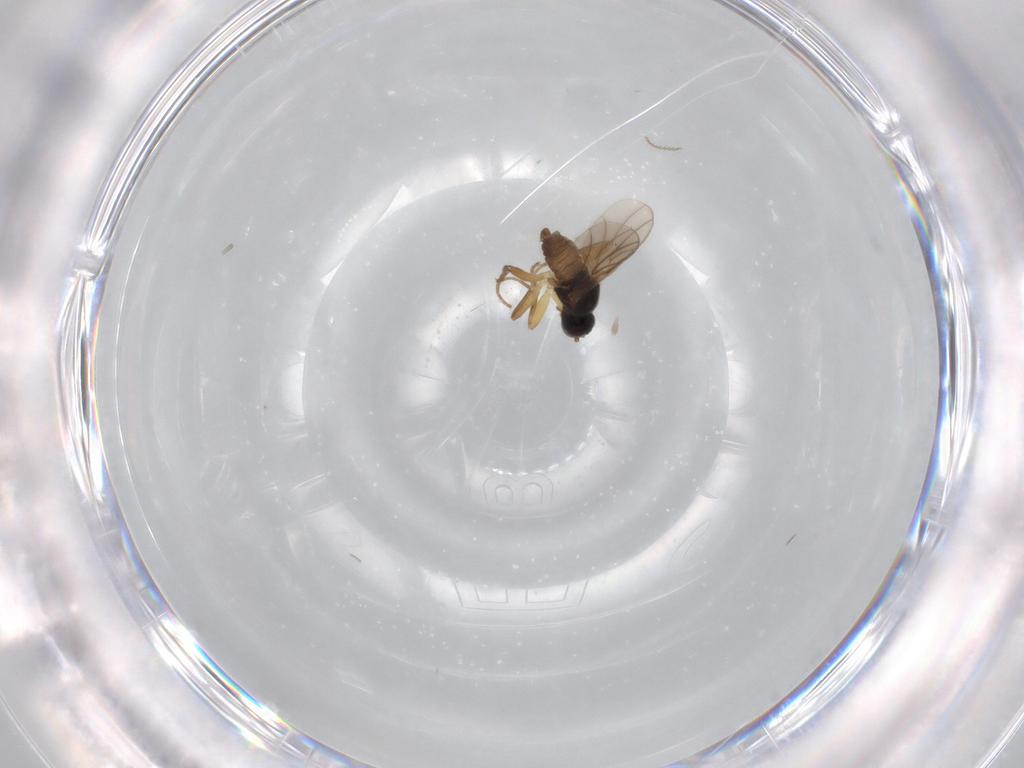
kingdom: Animalia
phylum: Arthropoda
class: Insecta
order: Diptera
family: Hybotidae
